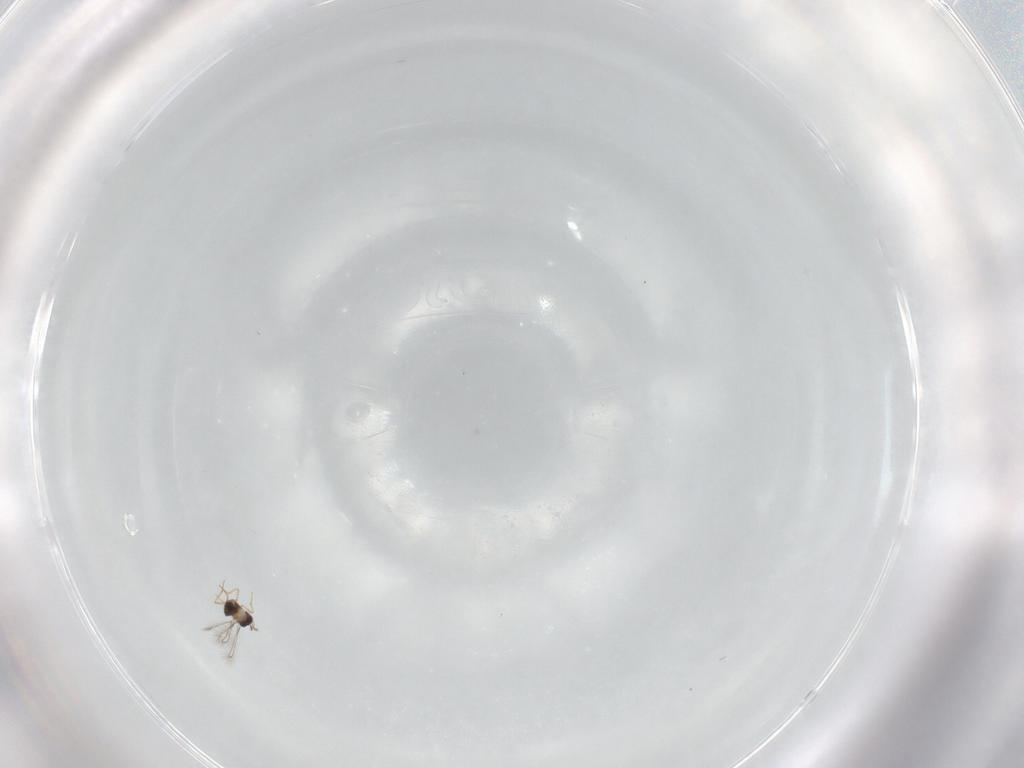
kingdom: Animalia
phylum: Arthropoda
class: Insecta
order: Hymenoptera
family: Mymaridae
